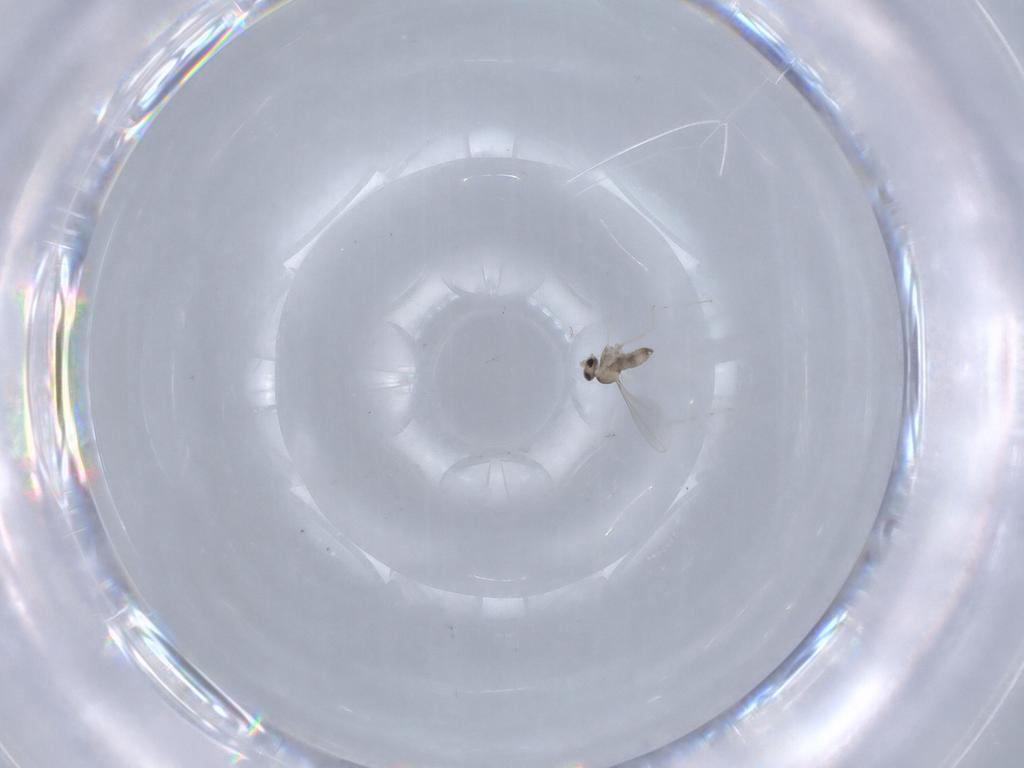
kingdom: Animalia
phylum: Arthropoda
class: Insecta
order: Diptera
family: Cecidomyiidae
